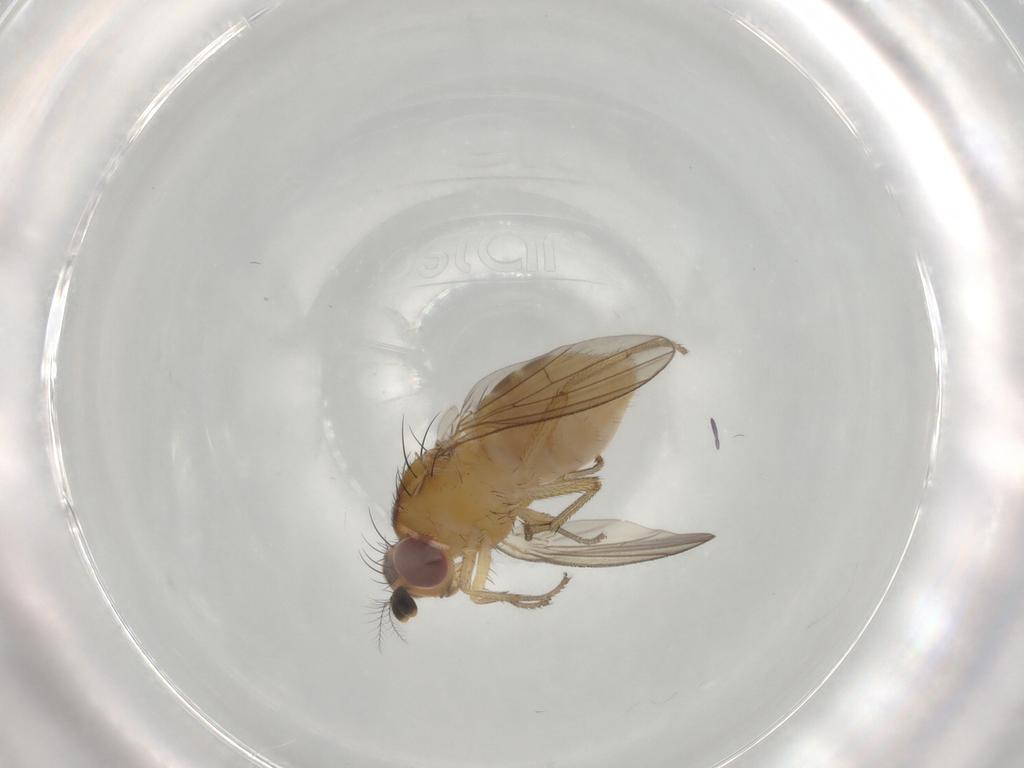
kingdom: Animalia
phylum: Arthropoda
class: Insecta
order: Diptera
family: Lauxaniidae
